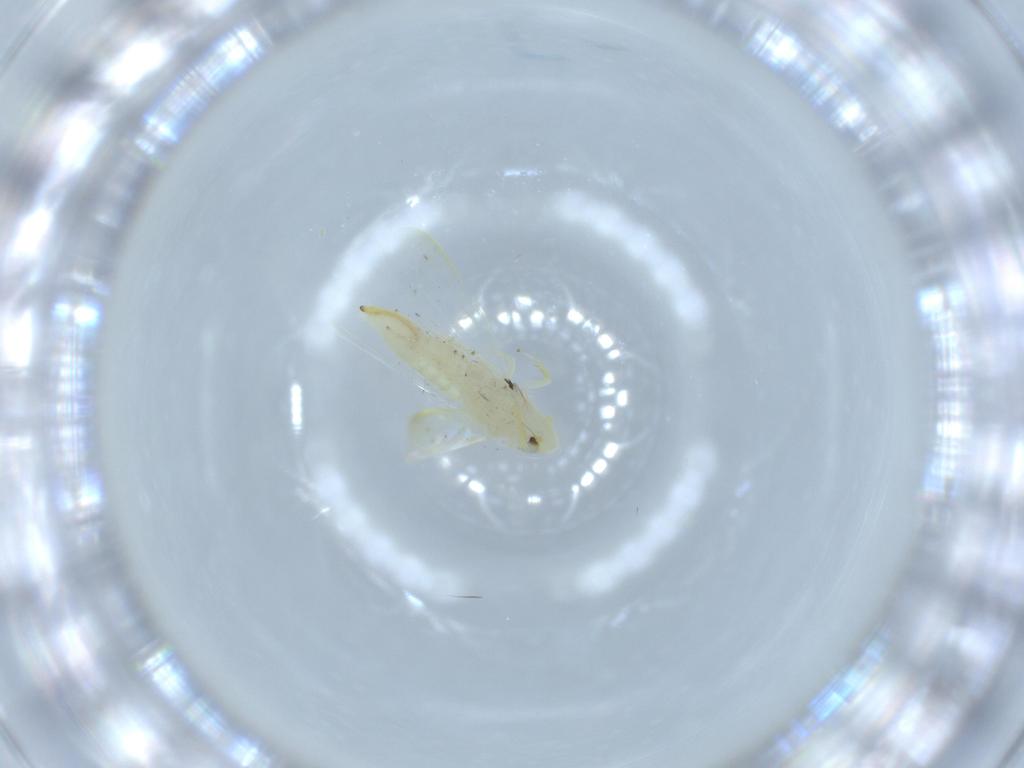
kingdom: Animalia
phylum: Arthropoda
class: Insecta
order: Hemiptera
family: Cicadellidae
